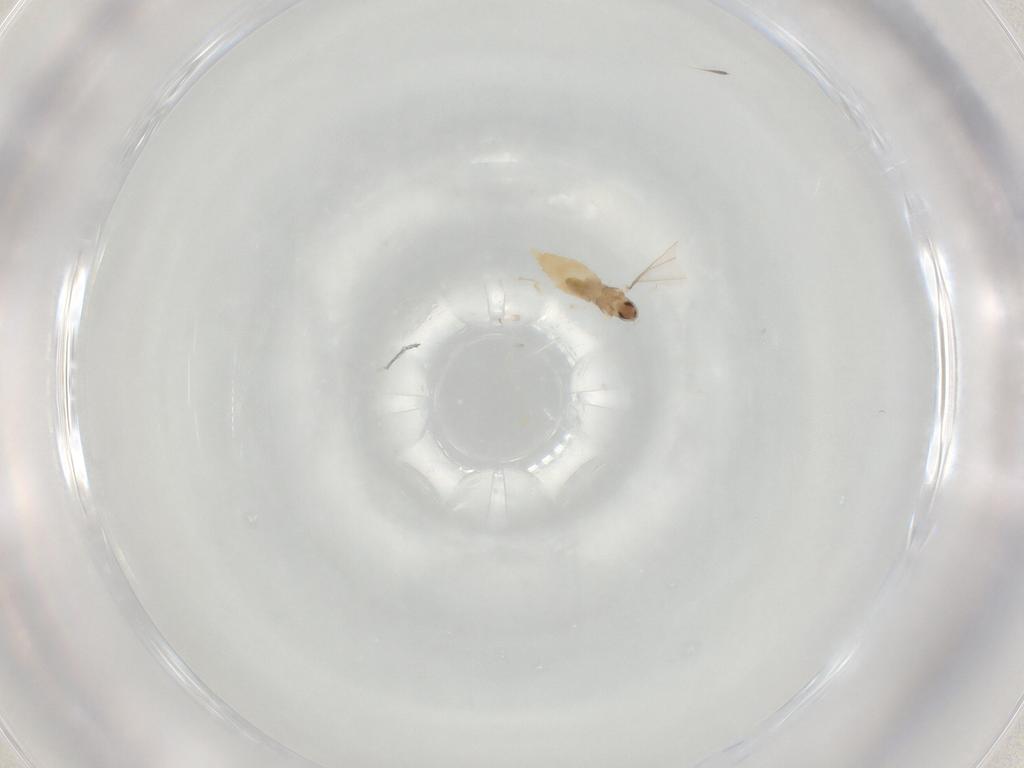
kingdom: Animalia
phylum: Arthropoda
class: Insecta
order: Diptera
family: Cecidomyiidae
